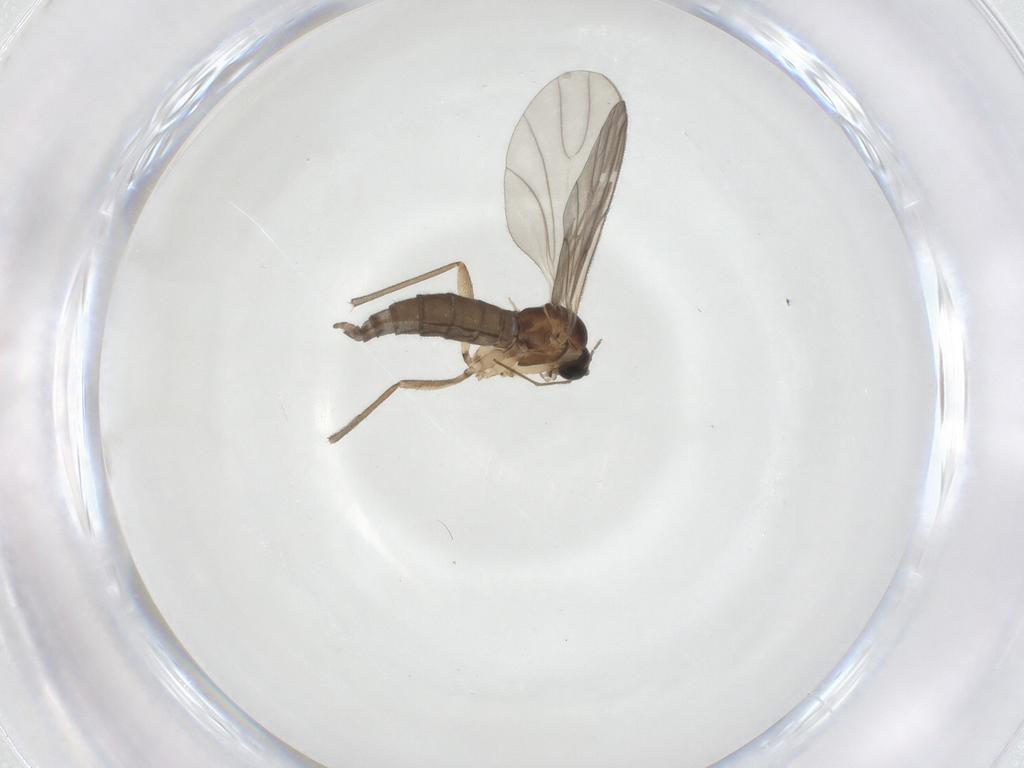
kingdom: Animalia
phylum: Arthropoda
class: Insecta
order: Diptera
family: Sciaridae
